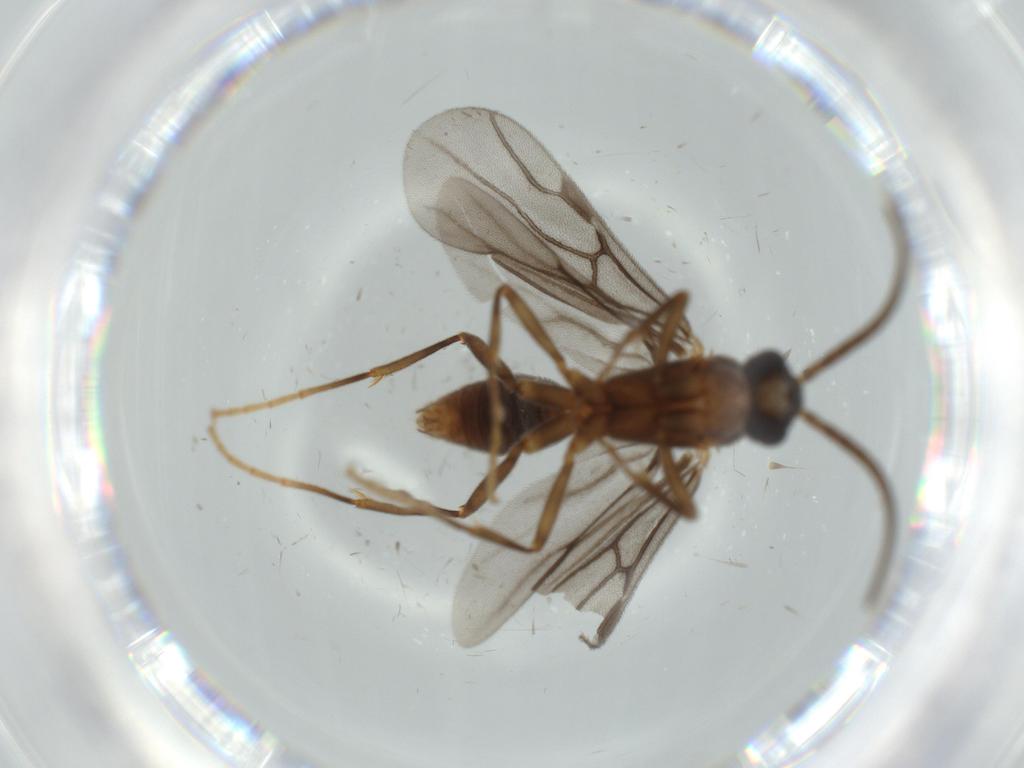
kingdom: Animalia
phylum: Arthropoda
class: Insecta
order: Hymenoptera
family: Formicidae
